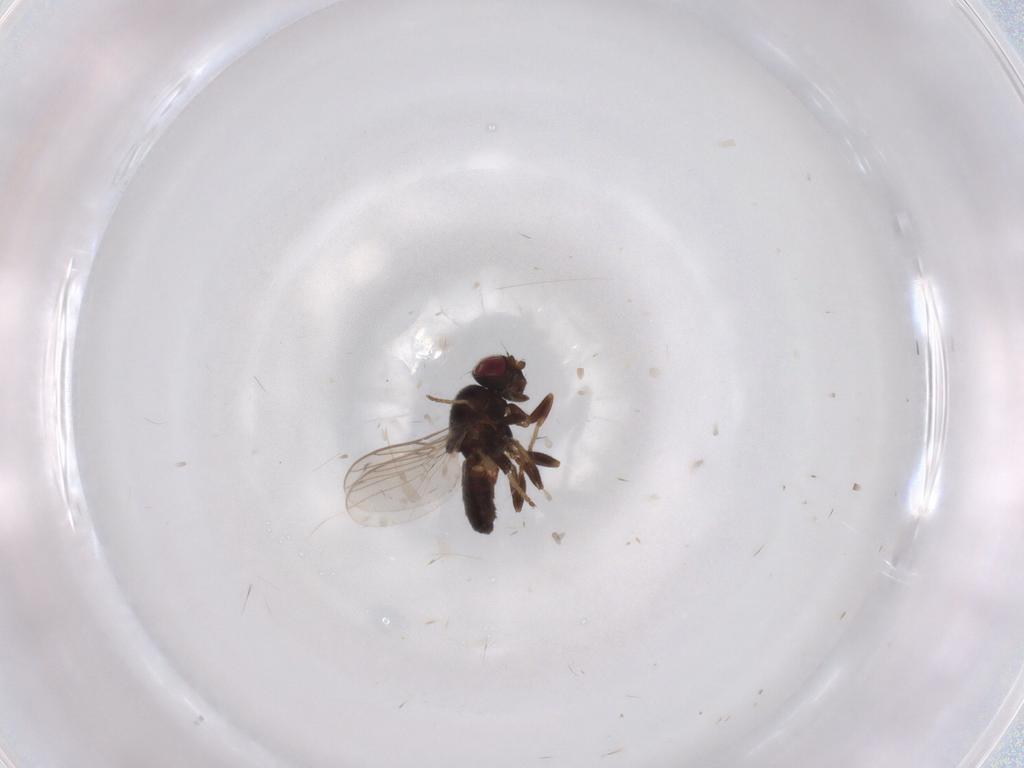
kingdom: Animalia
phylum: Arthropoda
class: Insecta
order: Diptera
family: Chloropidae
